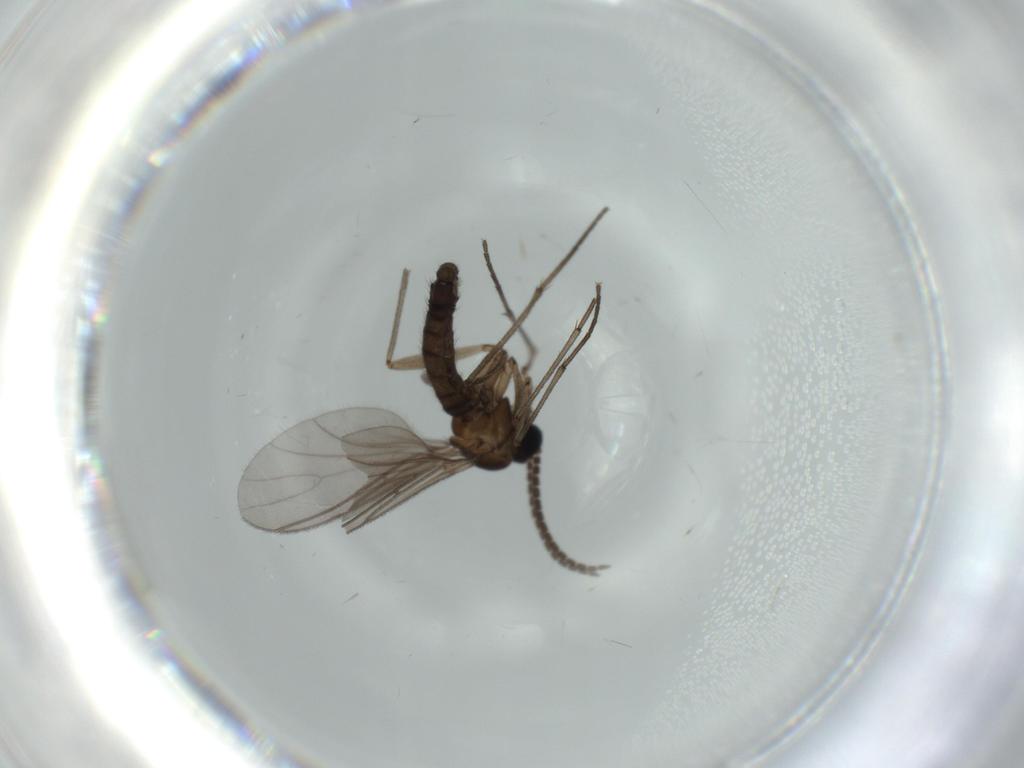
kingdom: Animalia
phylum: Arthropoda
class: Insecta
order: Diptera
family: Sciaridae
